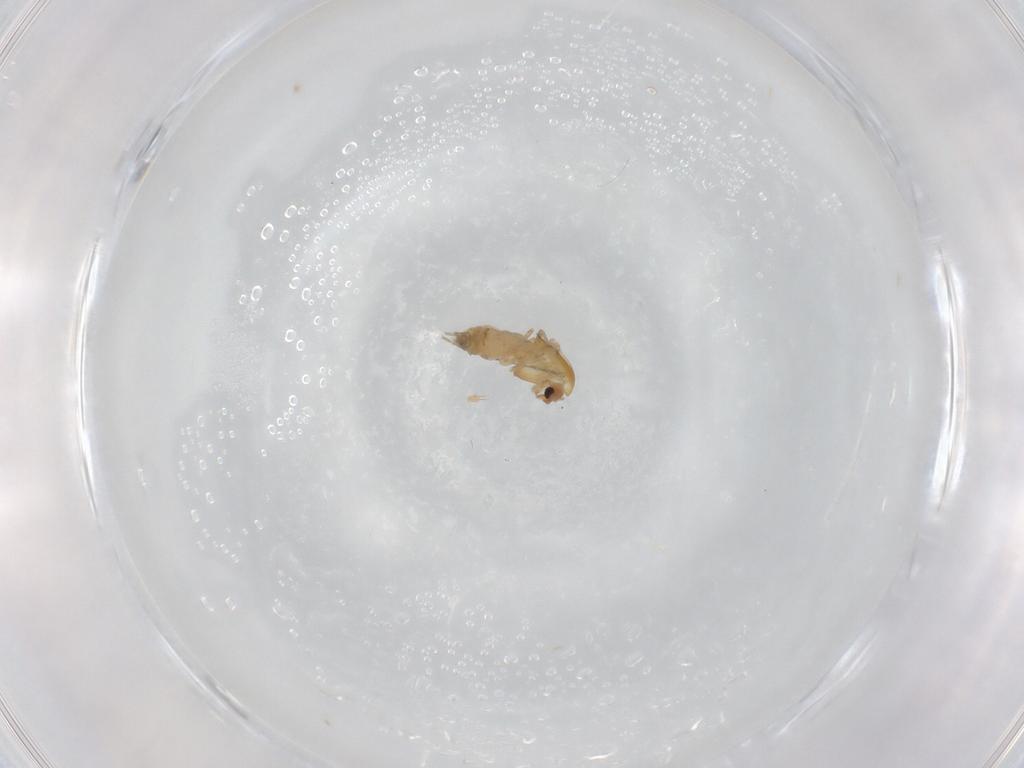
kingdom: Animalia
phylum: Arthropoda
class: Insecta
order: Diptera
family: Chironomidae
